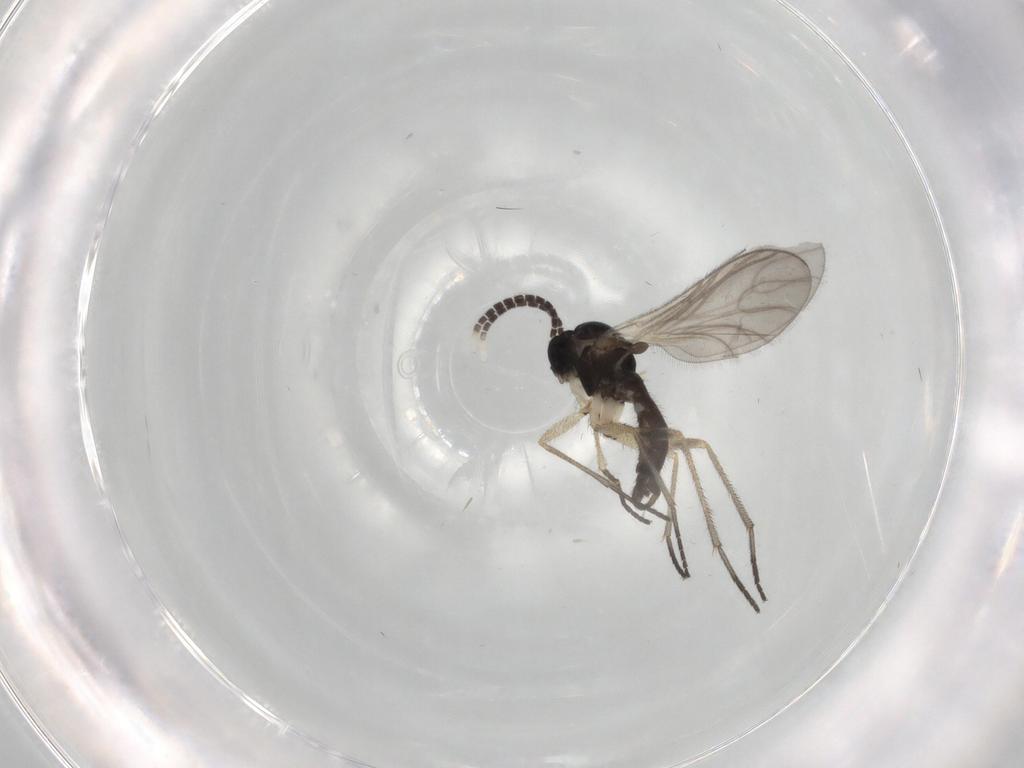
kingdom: Animalia
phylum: Arthropoda
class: Insecta
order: Diptera
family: Sciaridae
